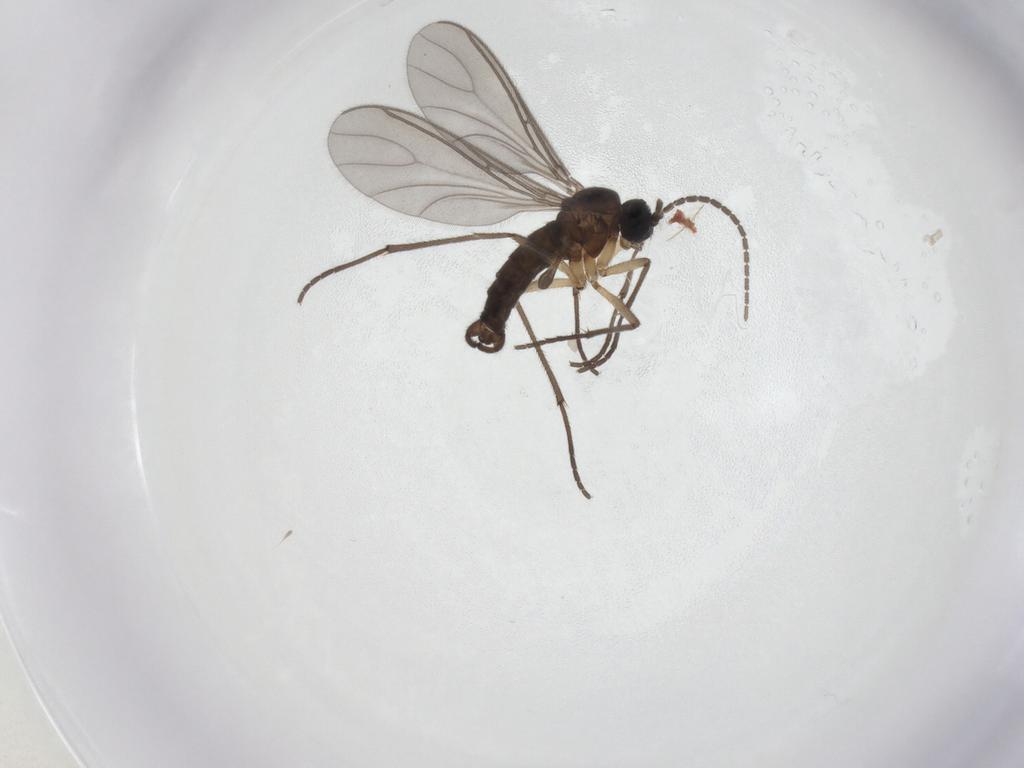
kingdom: Animalia
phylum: Arthropoda
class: Insecta
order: Diptera
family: Sciaridae
